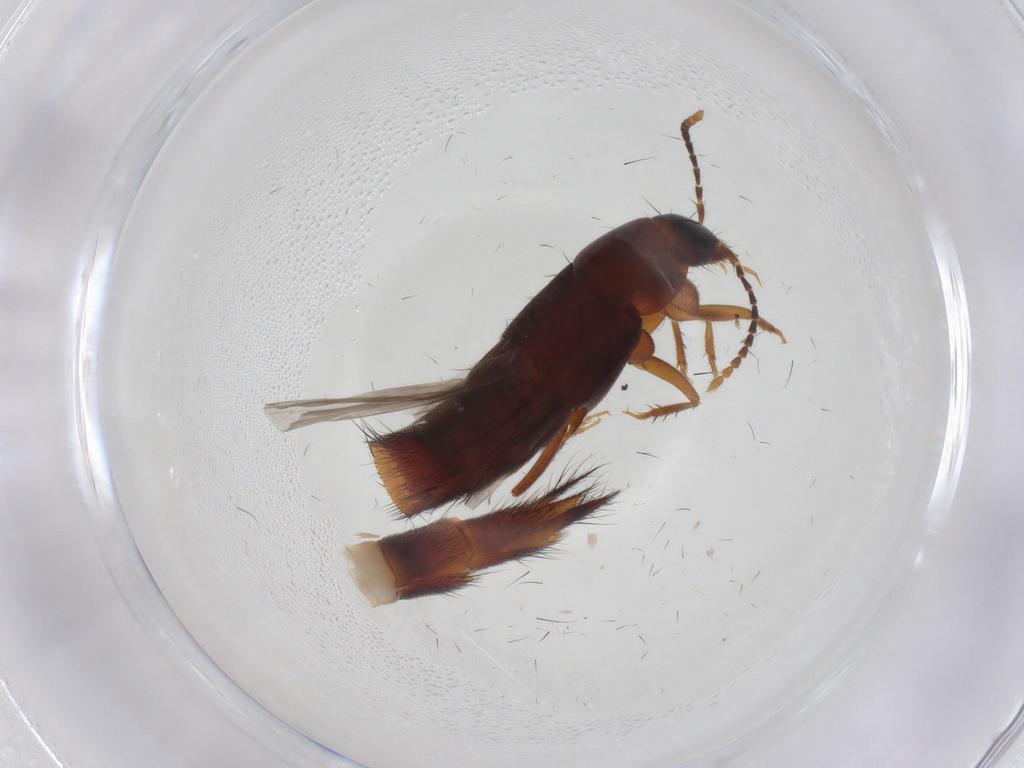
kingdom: Animalia
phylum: Arthropoda
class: Insecta
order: Coleoptera
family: Staphylinidae
